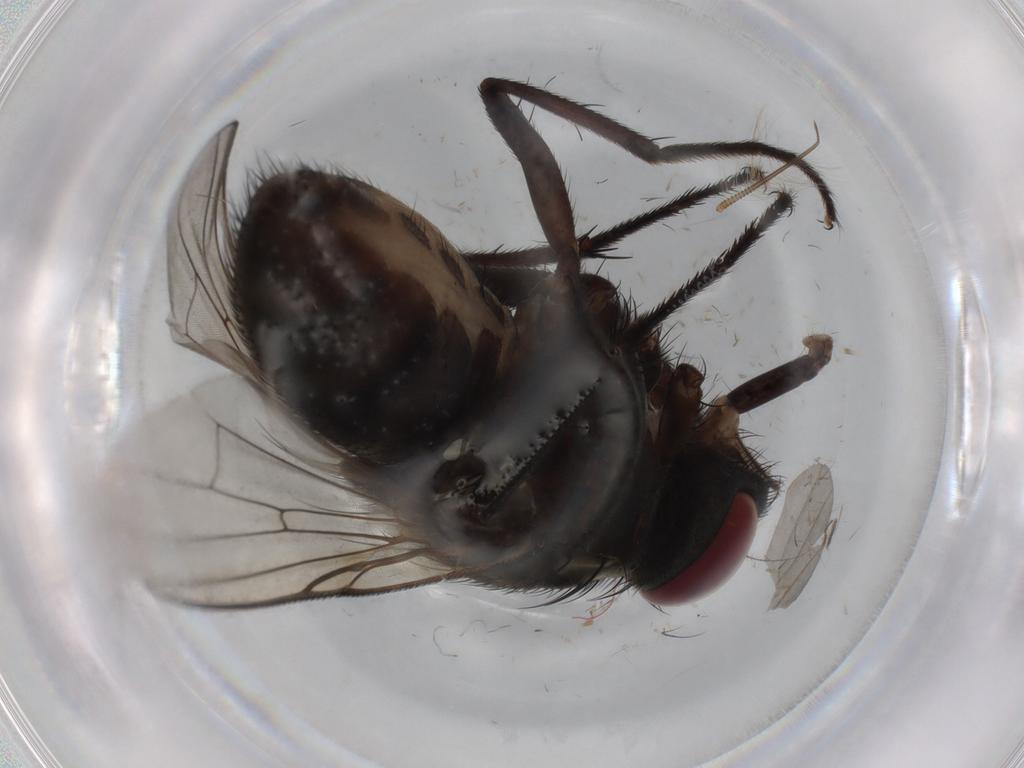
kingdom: Animalia
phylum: Arthropoda
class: Insecta
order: Diptera
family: Muscidae
